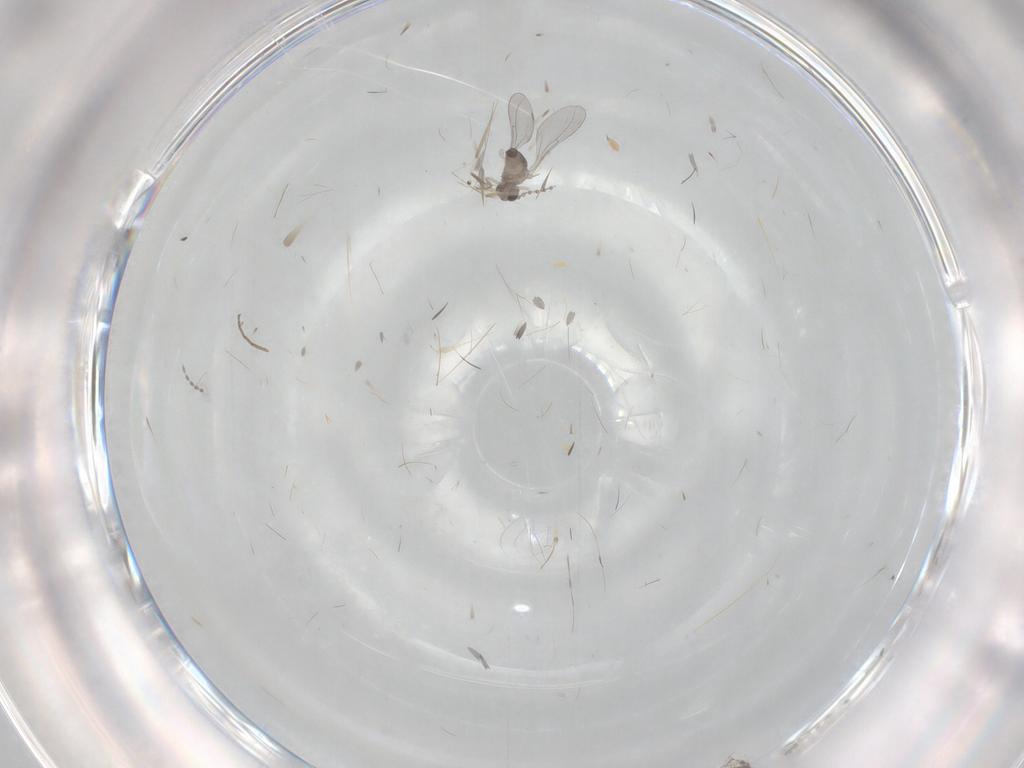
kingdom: Animalia
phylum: Arthropoda
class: Insecta
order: Diptera
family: Cecidomyiidae
